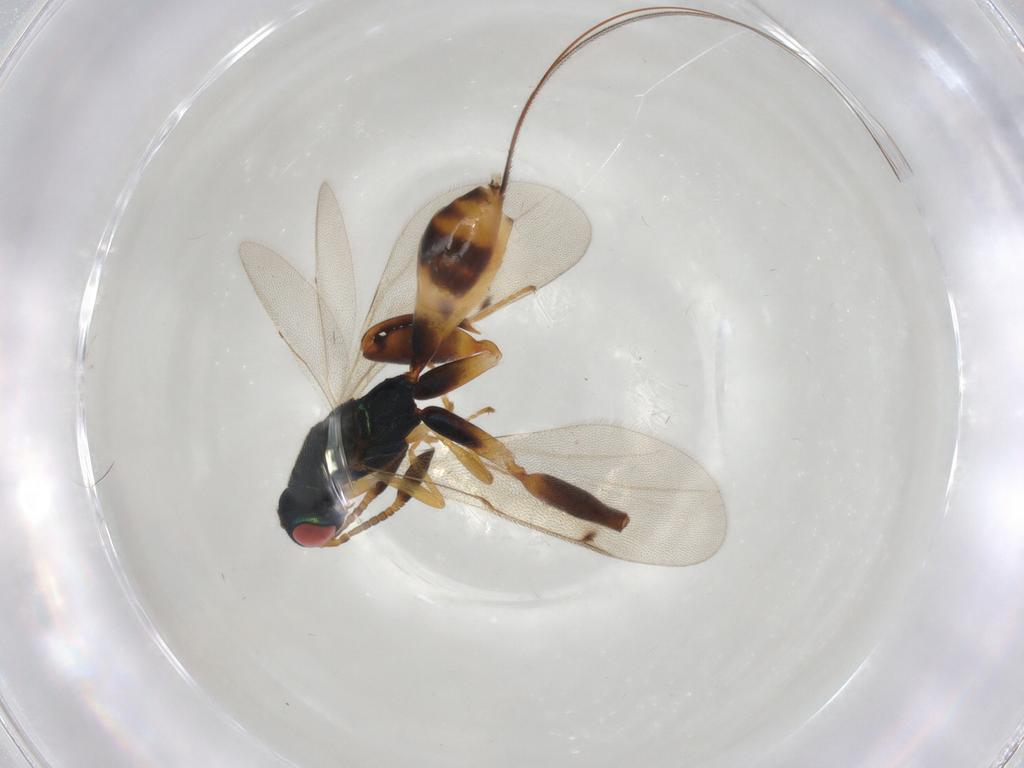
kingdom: Animalia
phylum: Arthropoda
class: Insecta
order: Hymenoptera
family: Torymidae
